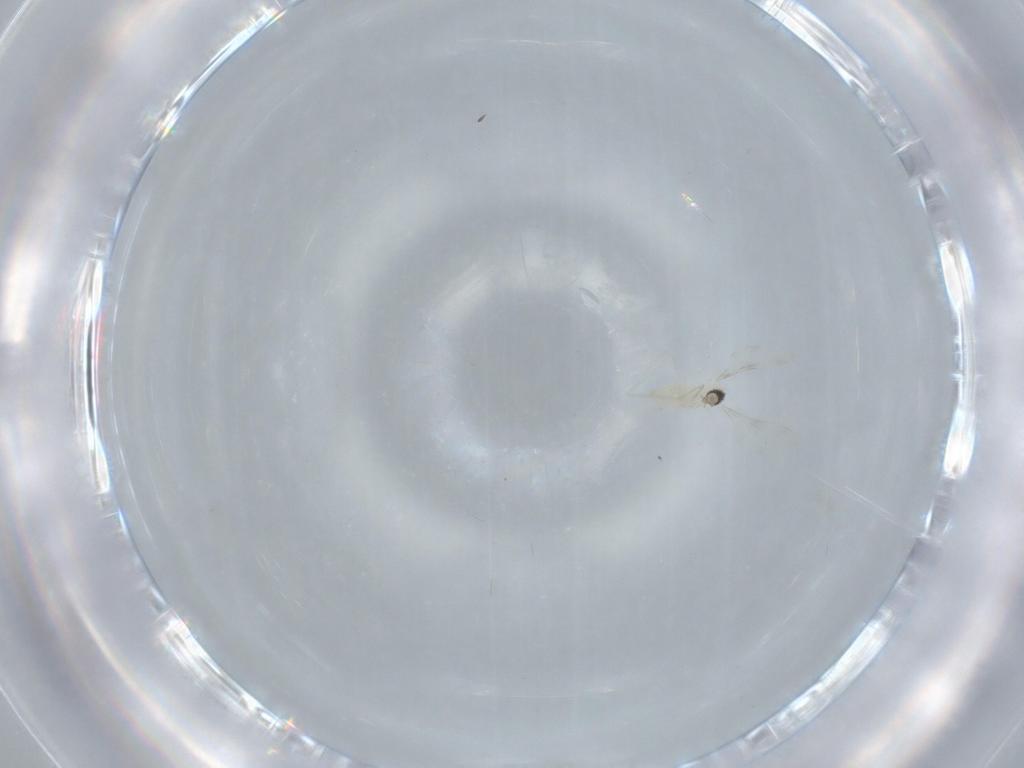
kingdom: Animalia
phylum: Arthropoda
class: Insecta
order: Diptera
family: Cecidomyiidae
